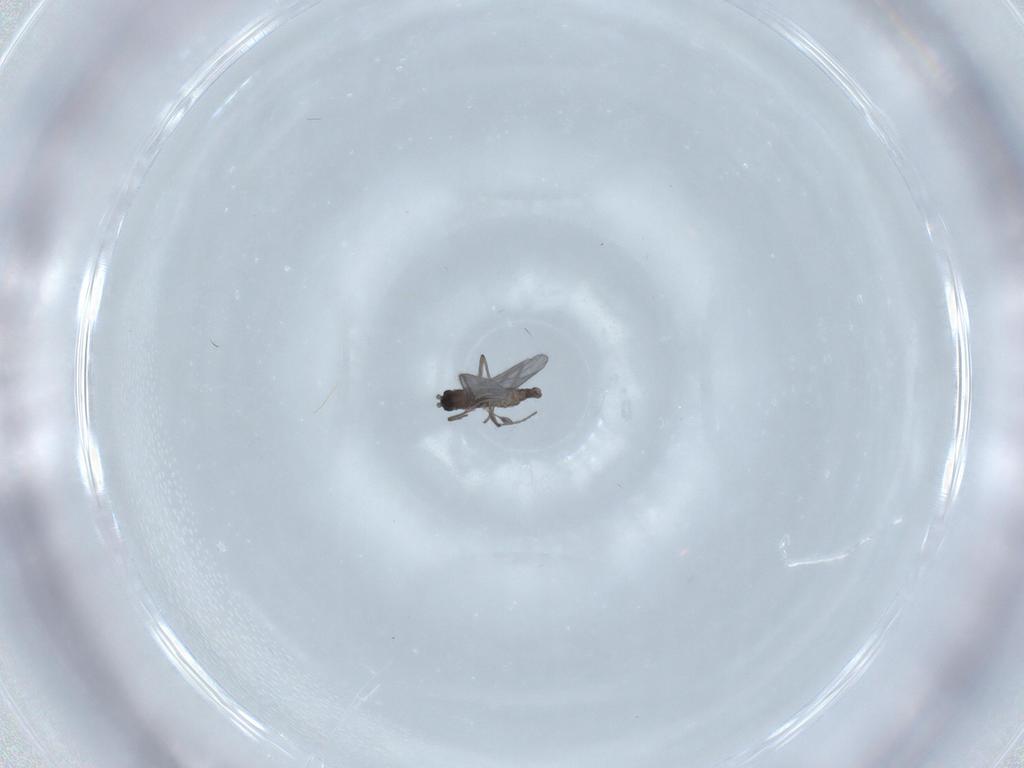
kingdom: Animalia
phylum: Arthropoda
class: Insecta
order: Diptera
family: Sciaridae
